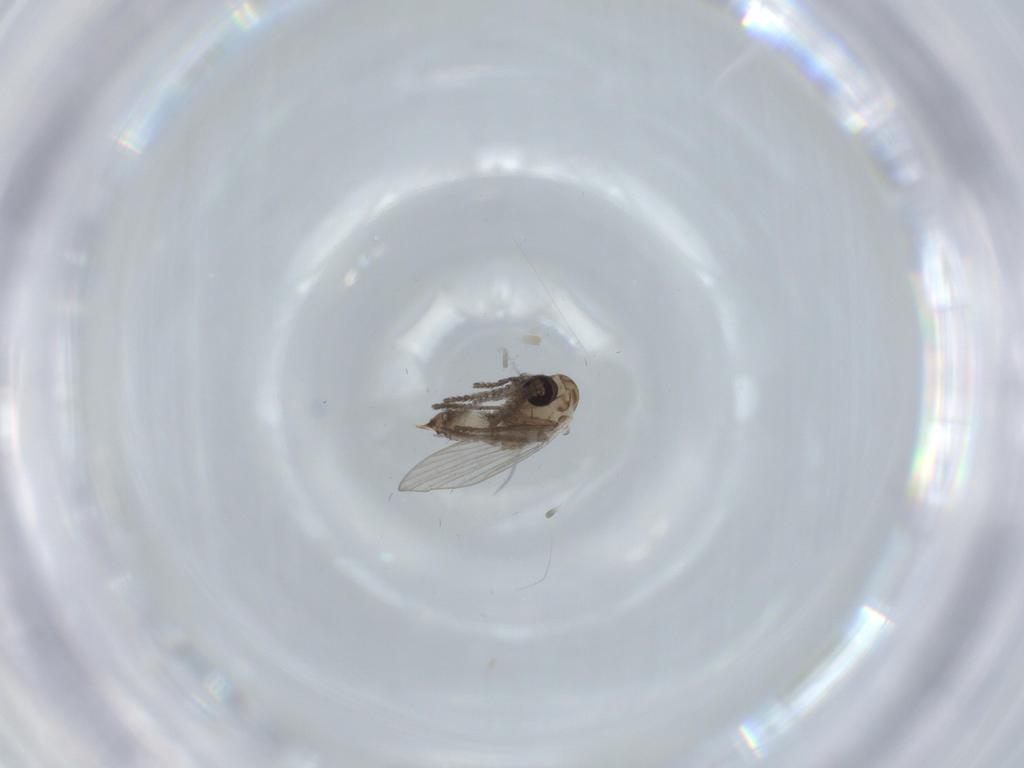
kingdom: Animalia
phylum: Arthropoda
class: Insecta
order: Diptera
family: Psychodidae
